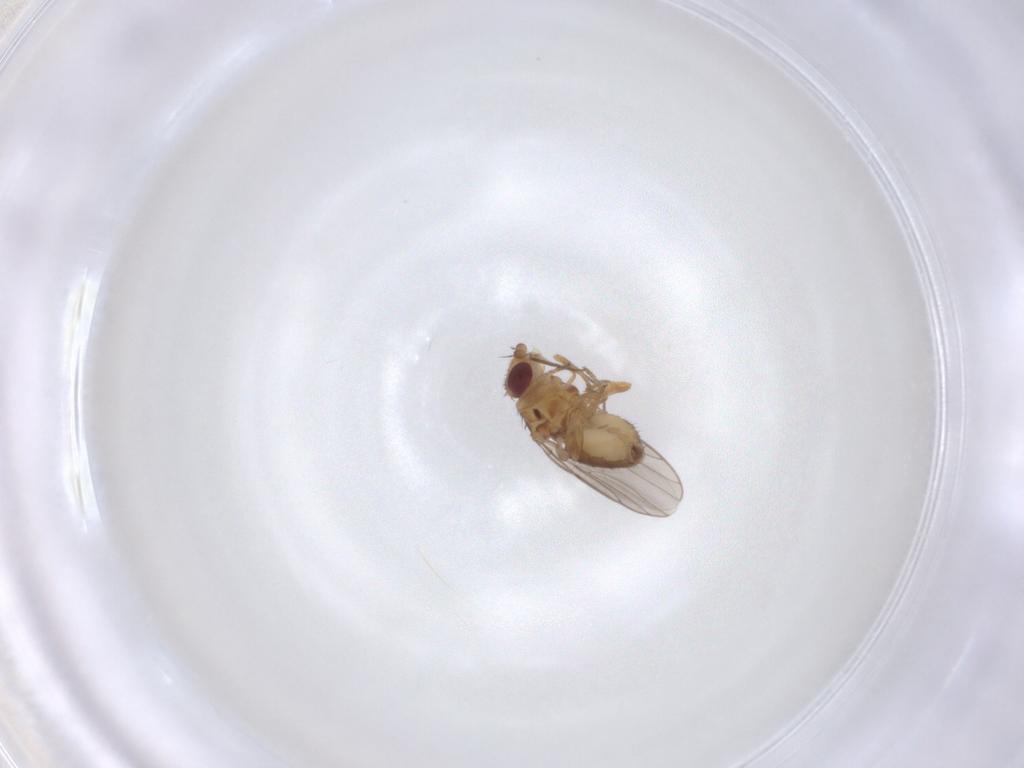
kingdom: Animalia
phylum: Arthropoda
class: Insecta
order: Diptera
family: Chloropidae
